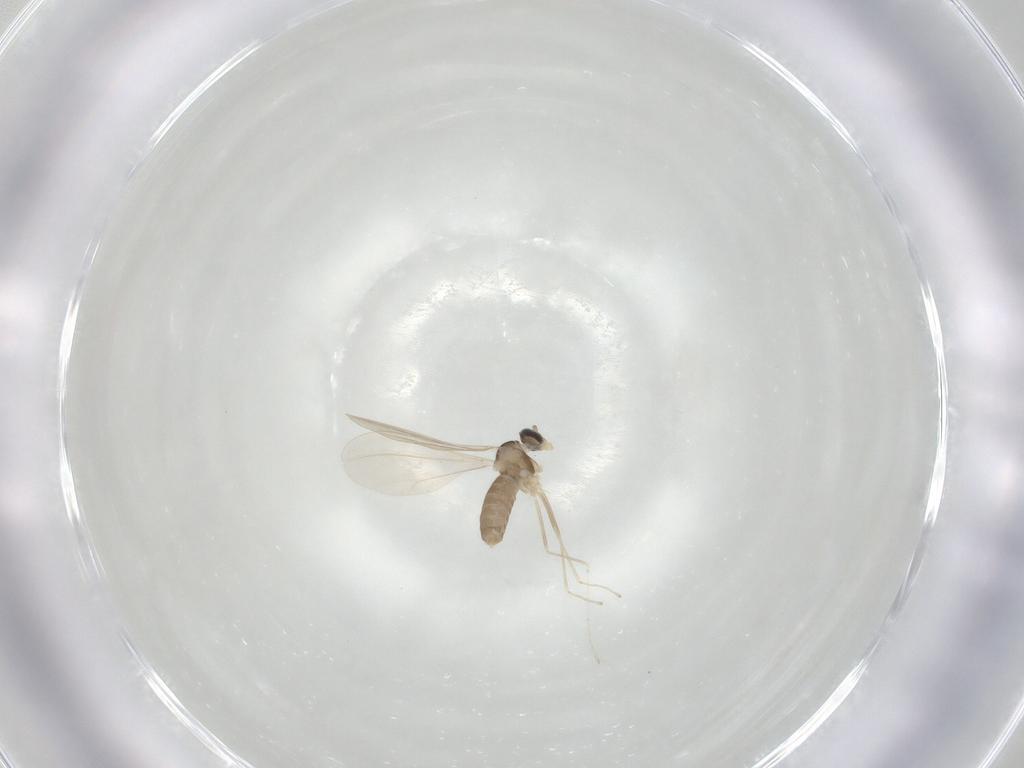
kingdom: Animalia
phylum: Arthropoda
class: Insecta
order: Diptera
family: Cecidomyiidae
